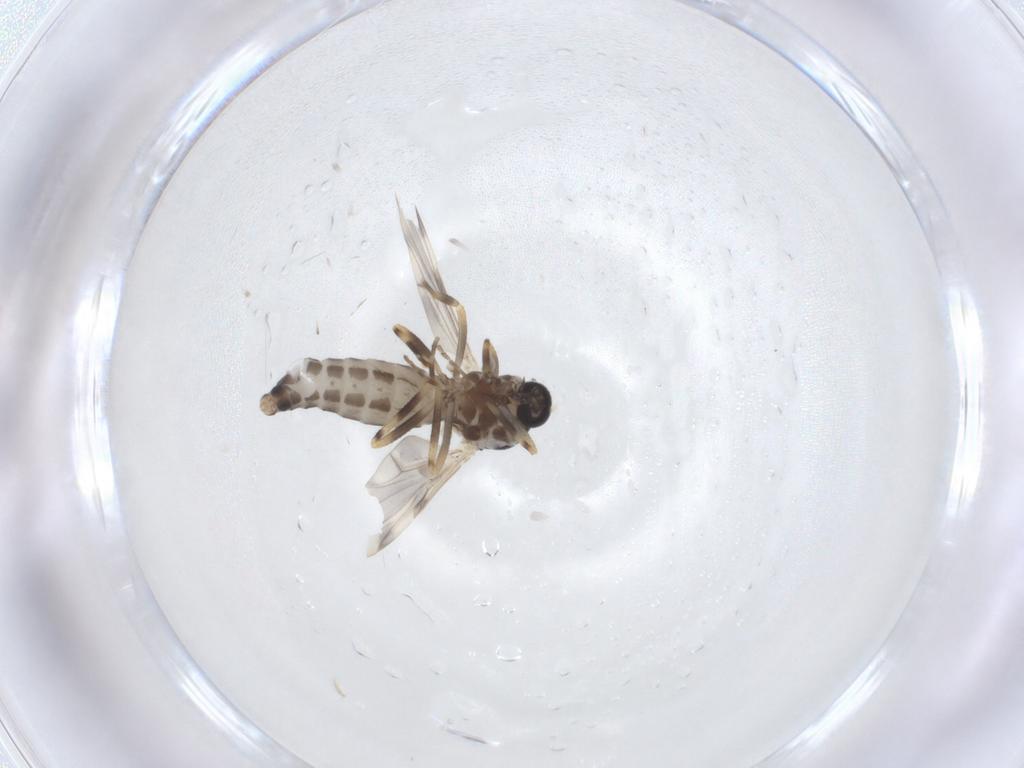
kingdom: Animalia
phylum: Arthropoda
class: Insecta
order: Diptera
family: Ceratopogonidae
